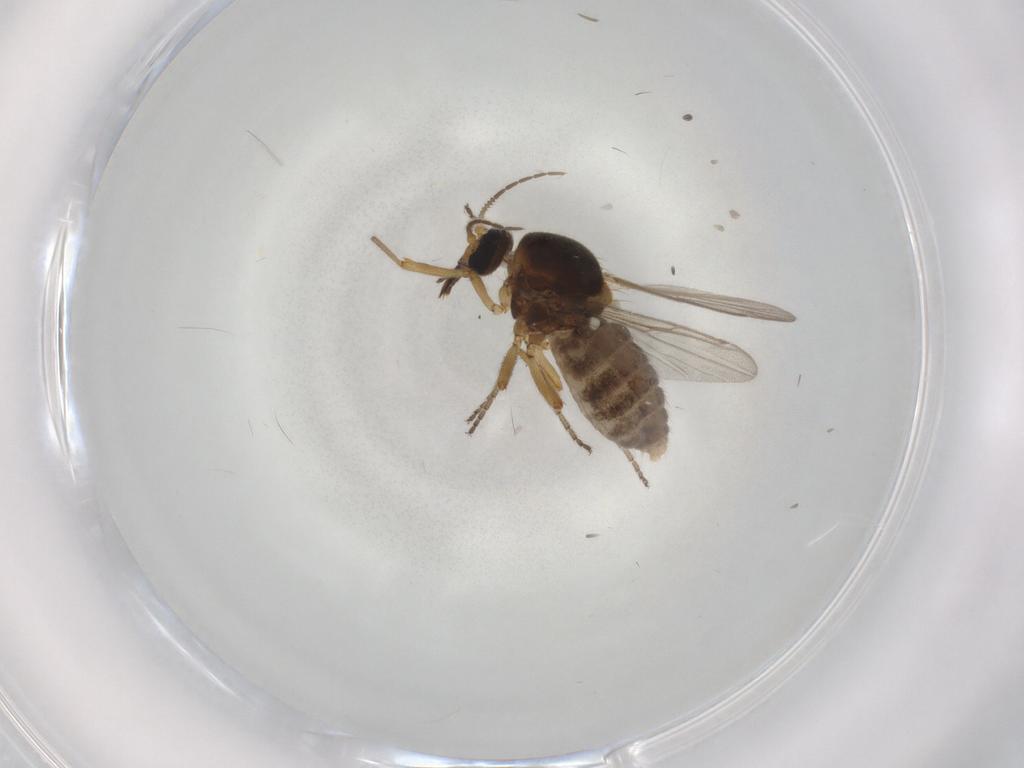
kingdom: Animalia
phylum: Arthropoda
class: Insecta
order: Diptera
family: Ceratopogonidae
